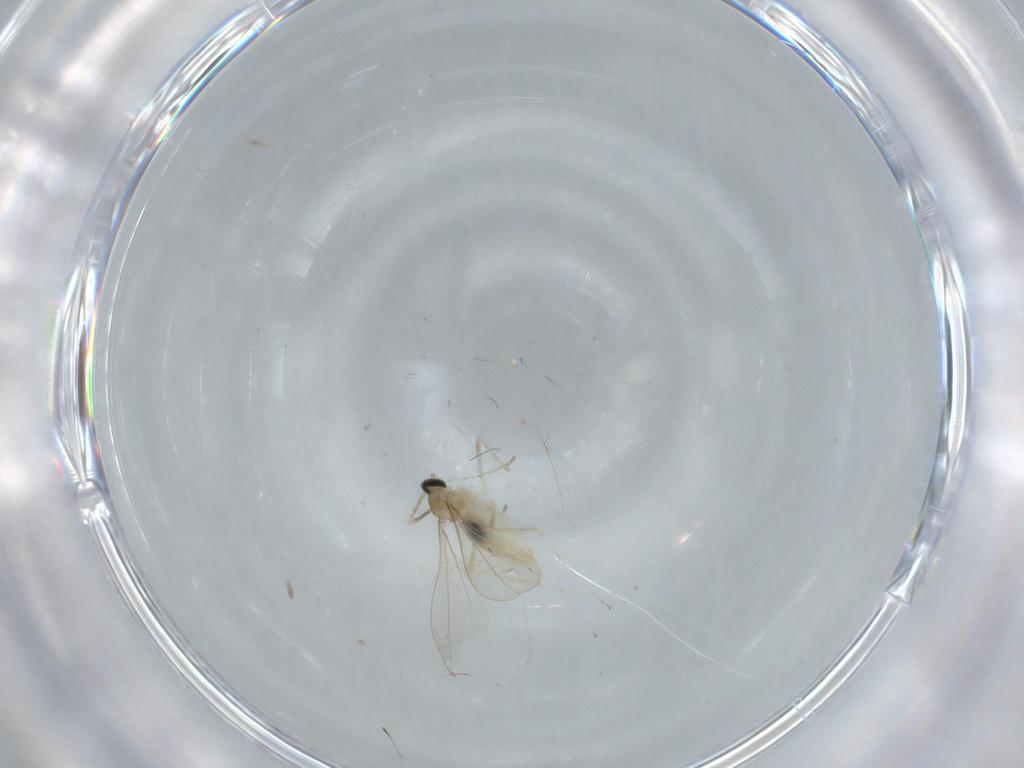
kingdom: Animalia
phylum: Arthropoda
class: Insecta
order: Diptera
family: Cecidomyiidae
